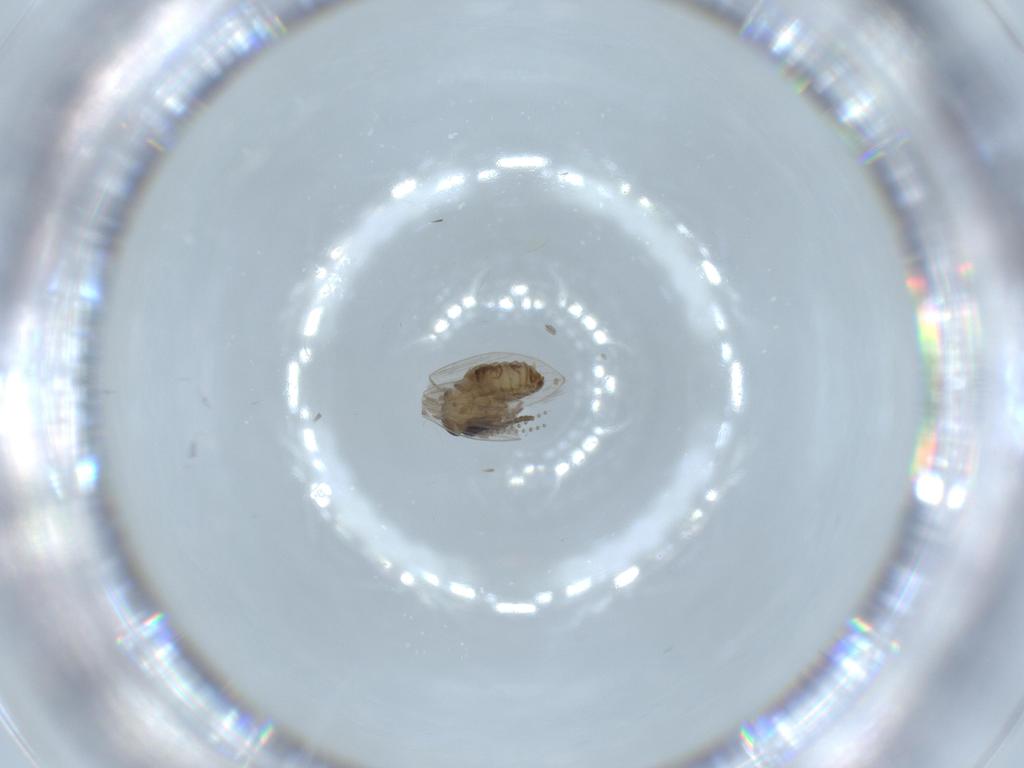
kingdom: Animalia
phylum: Arthropoda
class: Insecta
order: Diptera
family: Psychodidae
